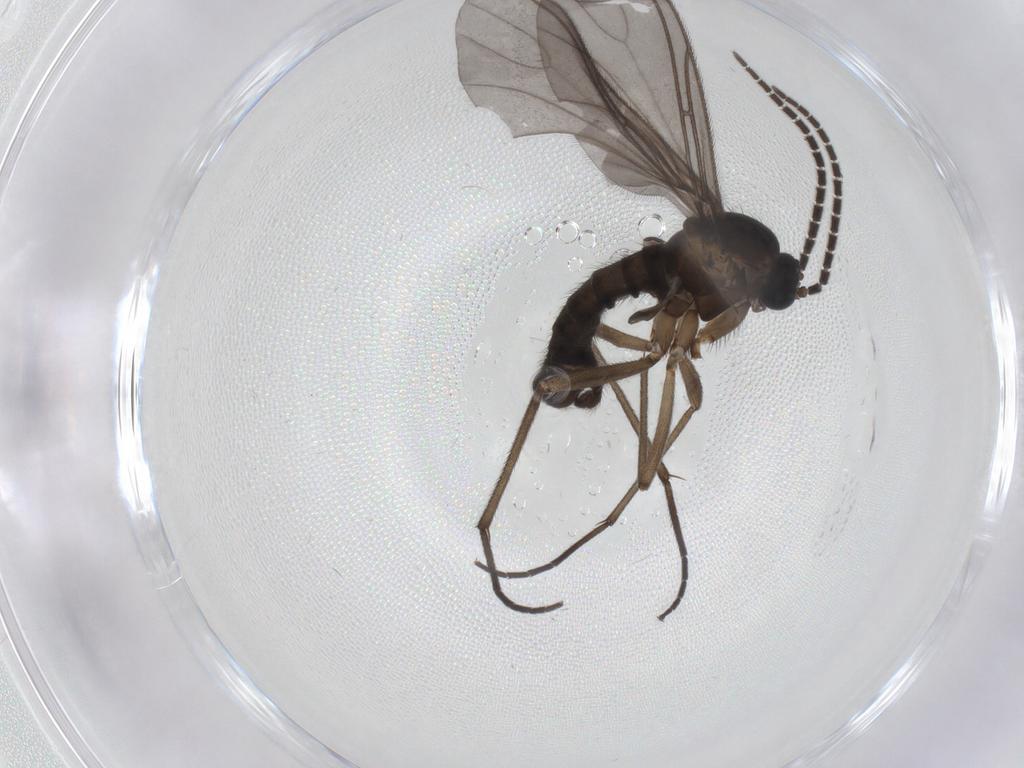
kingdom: Animalia
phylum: Arthropoda
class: Insecta
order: Diptera
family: Sciaridae
